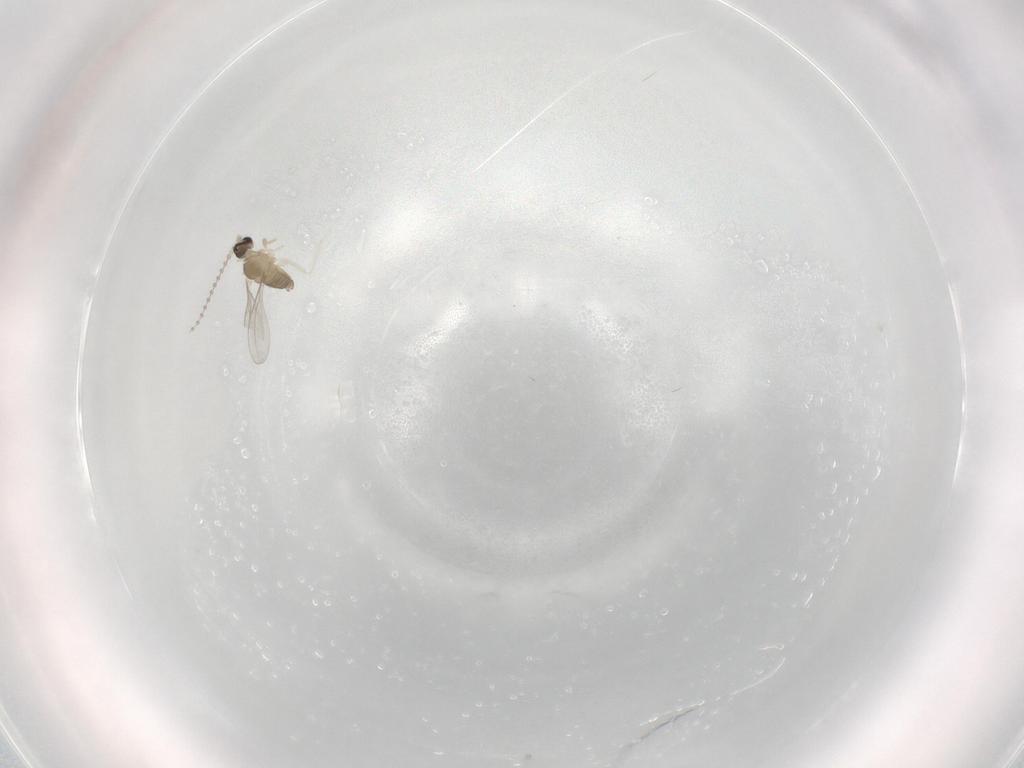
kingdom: Animalia
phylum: Arthropoda
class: Insecta
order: Diptera
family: Cecidomyiidae
